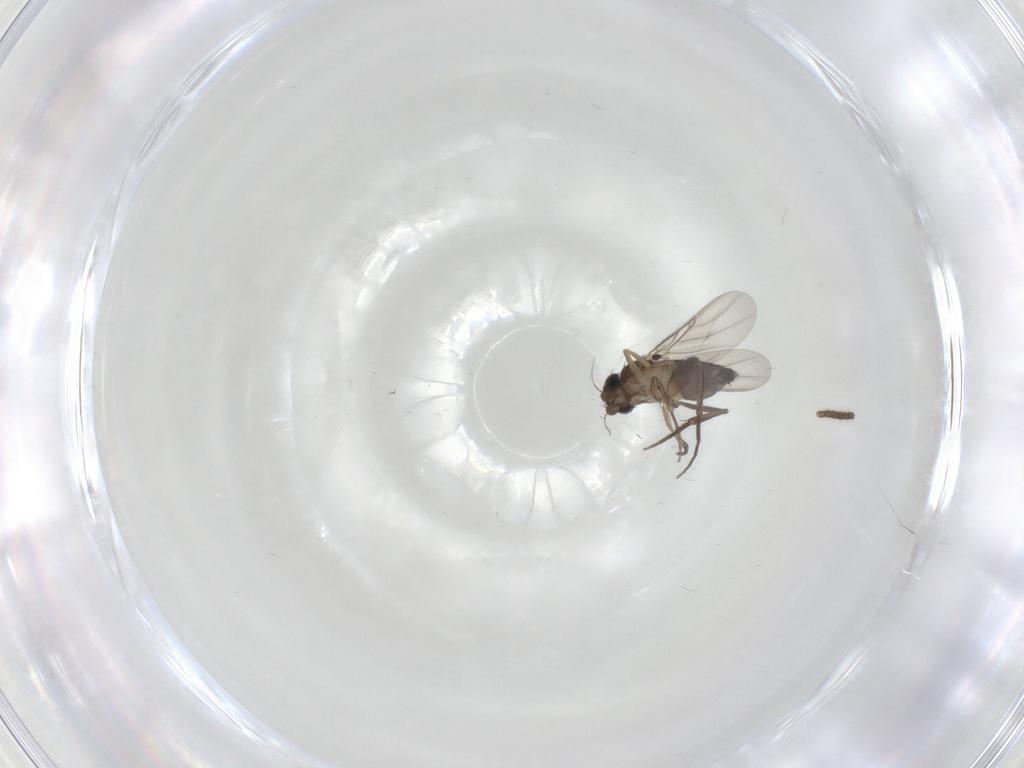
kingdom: Animalia
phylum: Arthropoda
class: Insecta
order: Diptera
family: Phoridae
